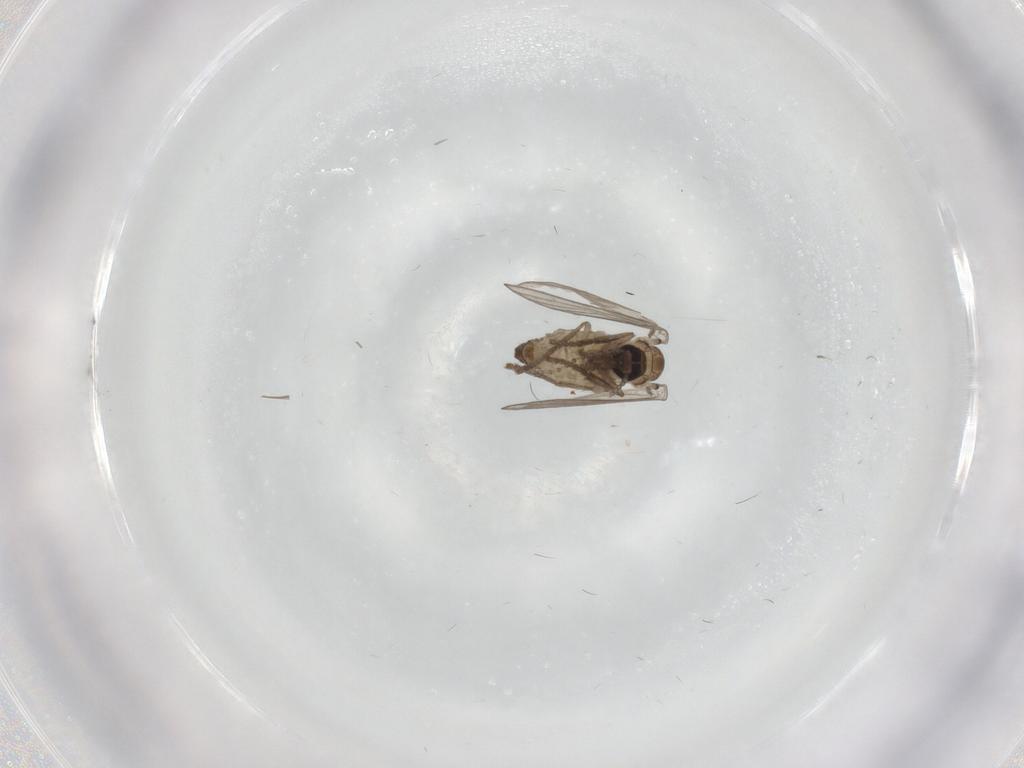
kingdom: Animalia
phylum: Arthropoda
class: Insecta
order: Diptera
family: Psychodidae
